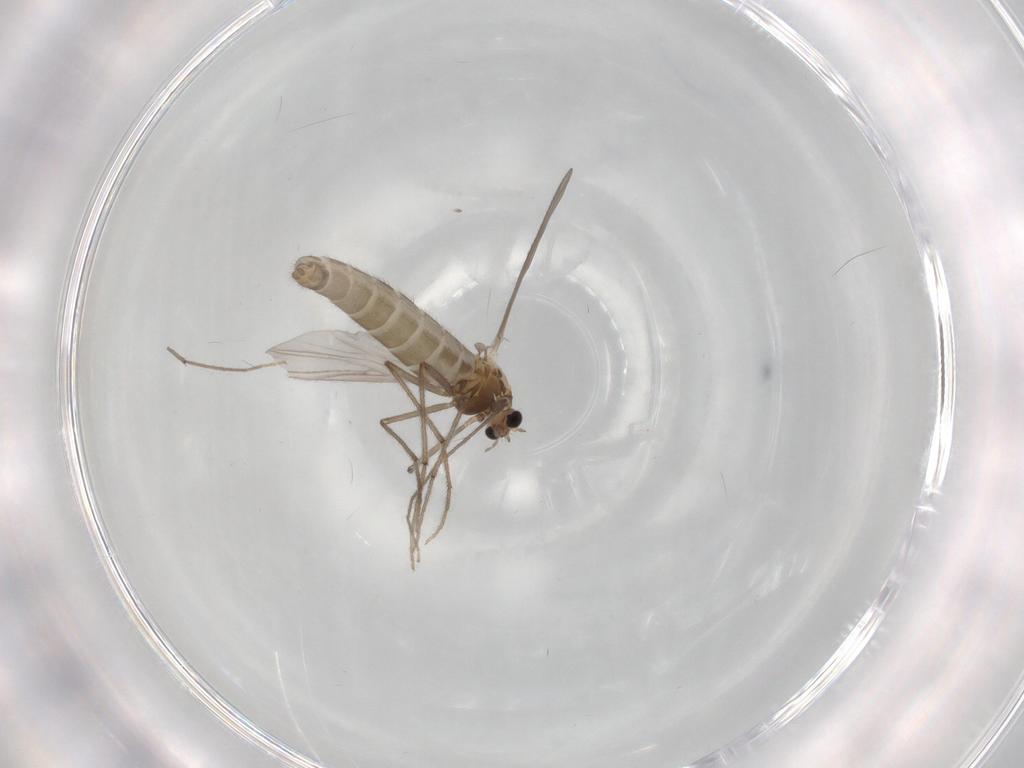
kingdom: Animalia
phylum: Arthropoda
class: Insecta
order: Diptera
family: Chironomidae
